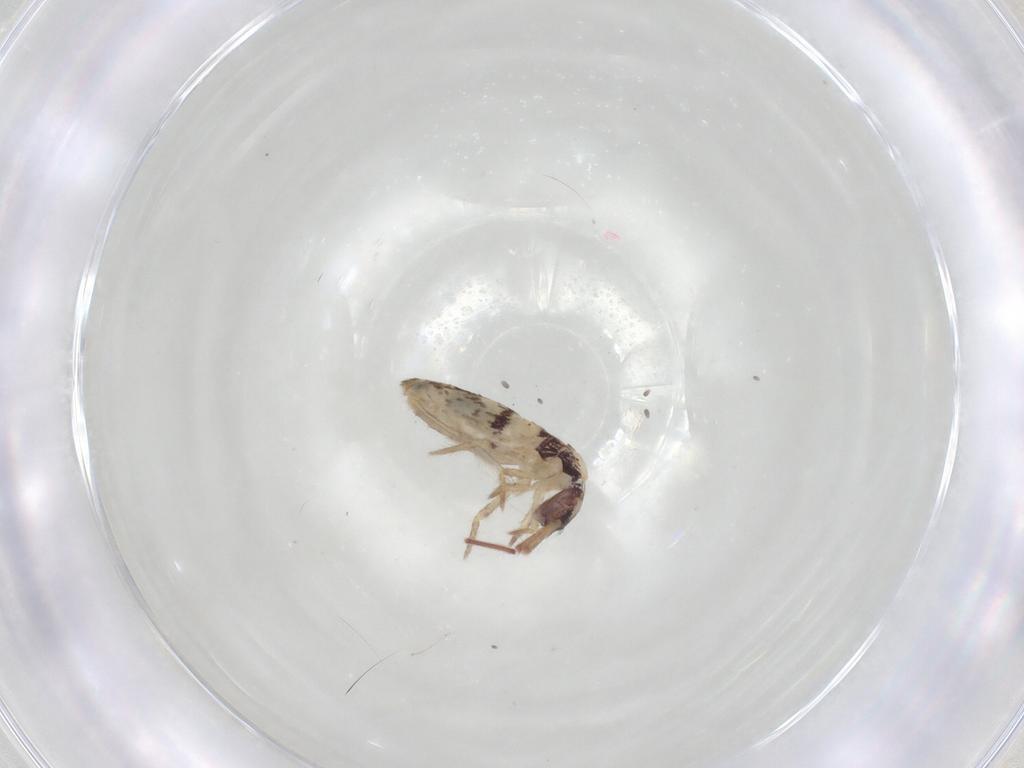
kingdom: Animalia
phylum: Arthropoda
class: Collembola
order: Entomobryomorpha
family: Entomobryidae
